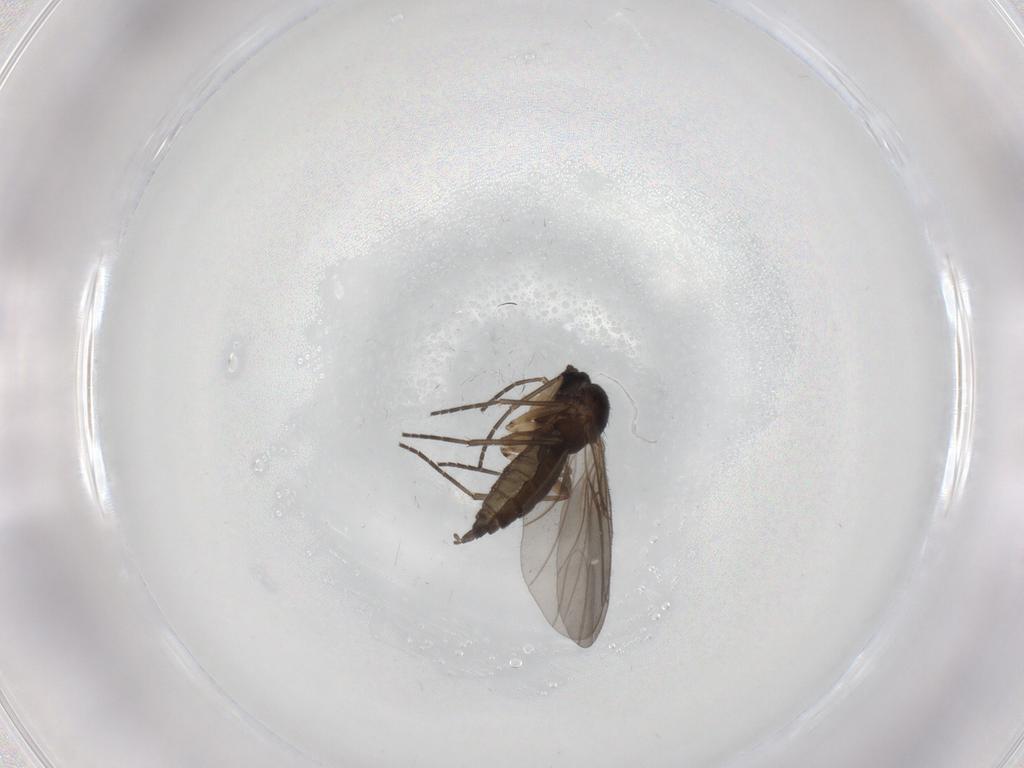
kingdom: Animalia
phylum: Arthropoda
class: Insecta
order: Diptera
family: Sciaridae
